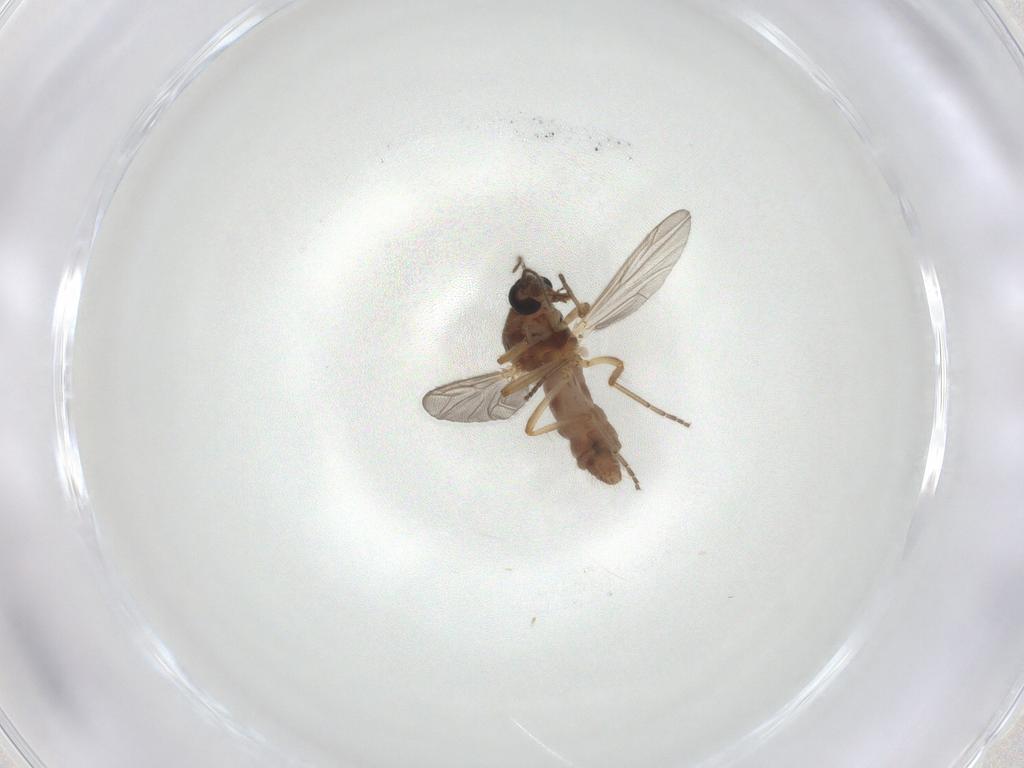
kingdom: Animalia
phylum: Arthropoda
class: Insecta
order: Diptera
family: Ceratopogonidae
